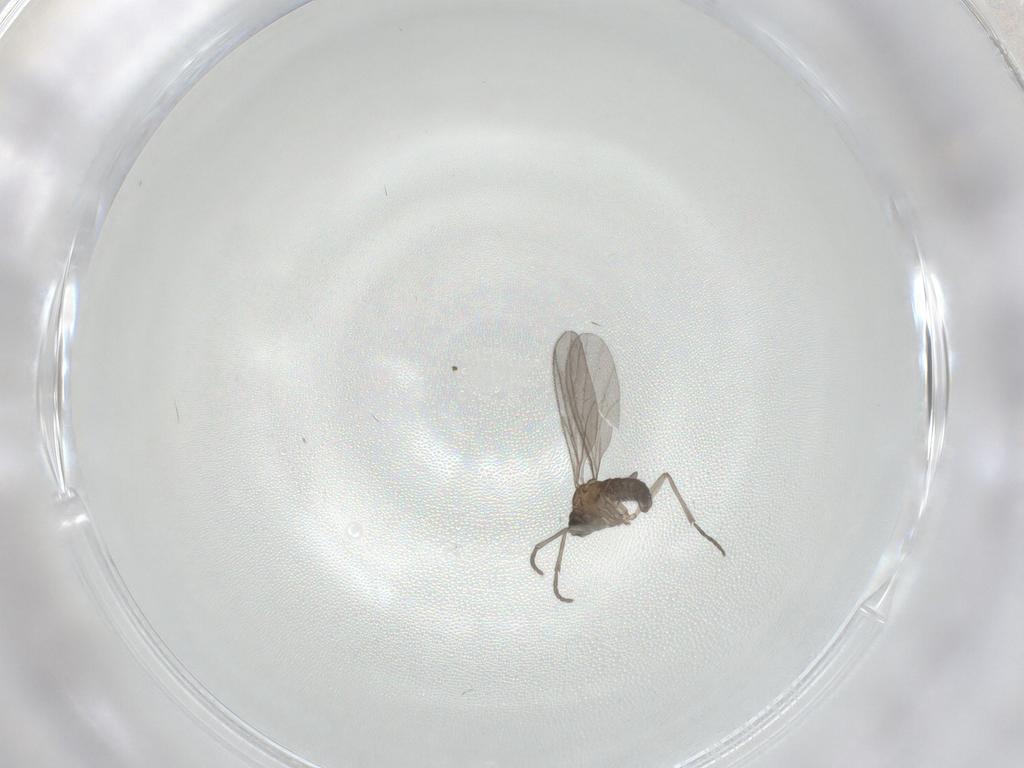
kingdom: Animalia
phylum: Arthropoda
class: Insecta
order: Diptera
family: Sciaridae
